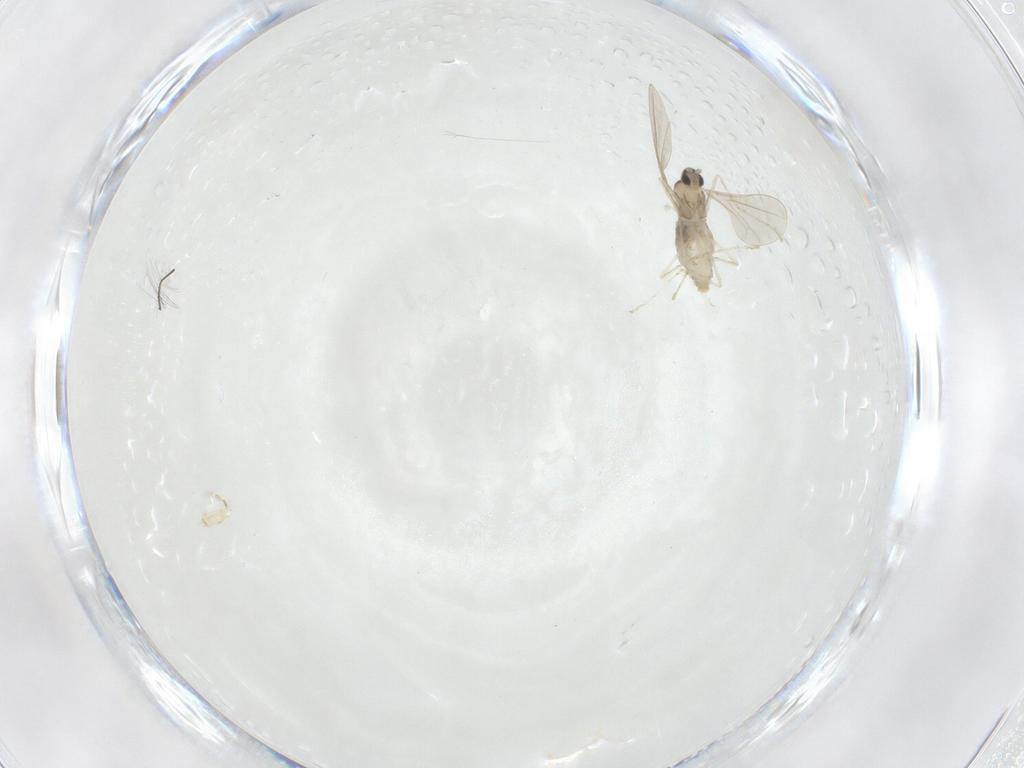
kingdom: Animalia
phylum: Arthropoda
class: Insecta
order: Diptera
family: Cecidomyiidae
